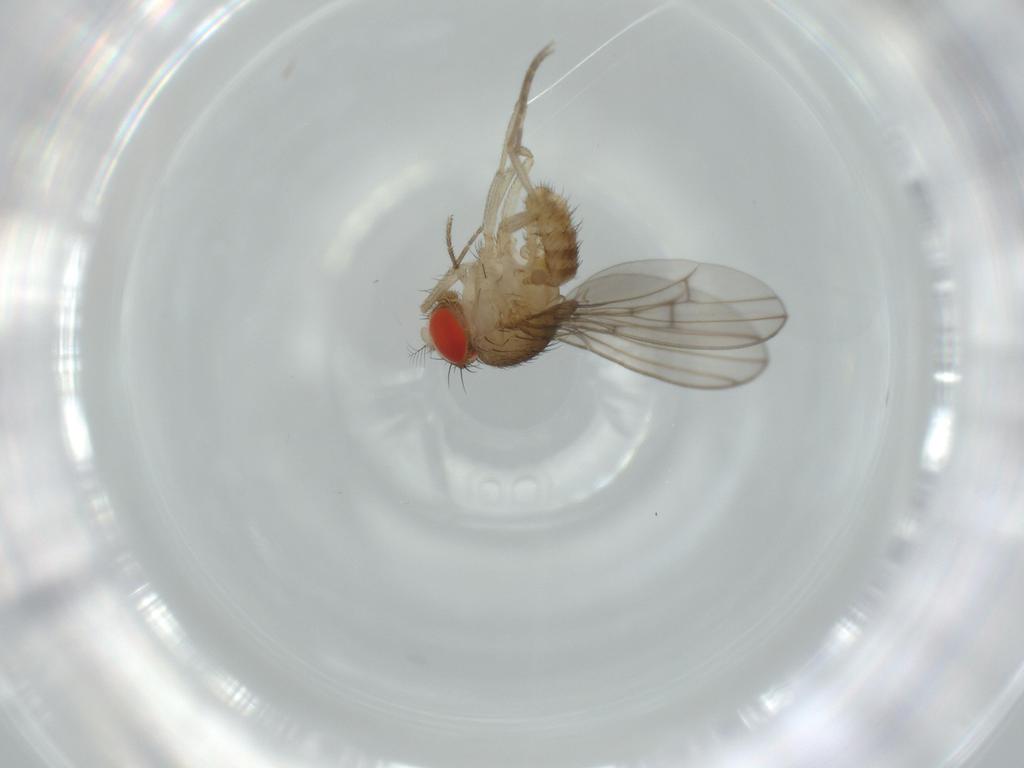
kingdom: Animalia
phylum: Arthropoda
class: Insecta
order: Diptera
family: Drosophilidae
